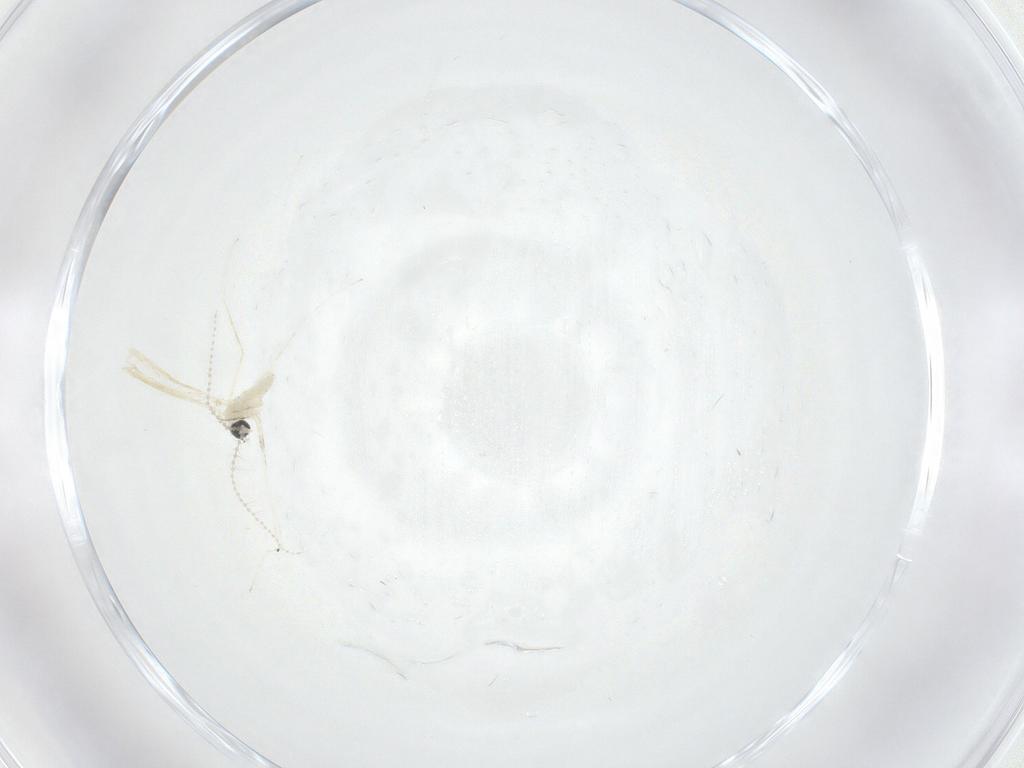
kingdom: Animalia
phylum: Arthropoda
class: Insecta
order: Diptera
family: Cecidomyiidae
